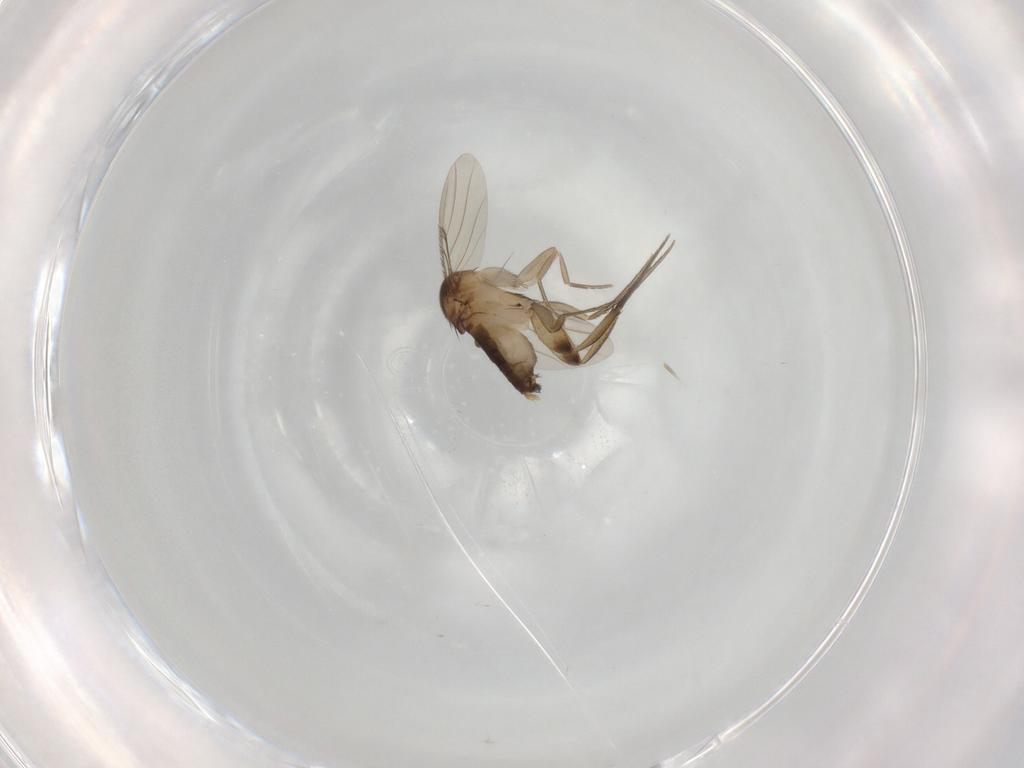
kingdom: Animalia
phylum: Arthropoda
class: Insecta
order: Diptera
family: Phoridae
